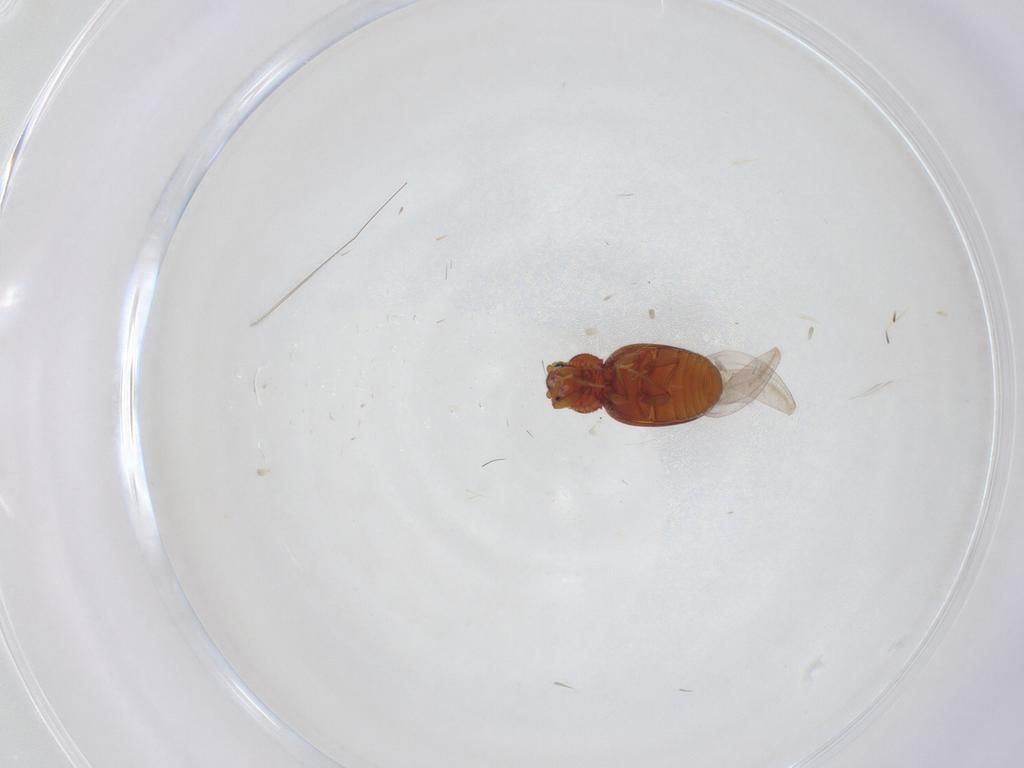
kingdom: Animalia
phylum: Arthropoda
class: Insecta
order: Coleoptera
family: Latridiidae
